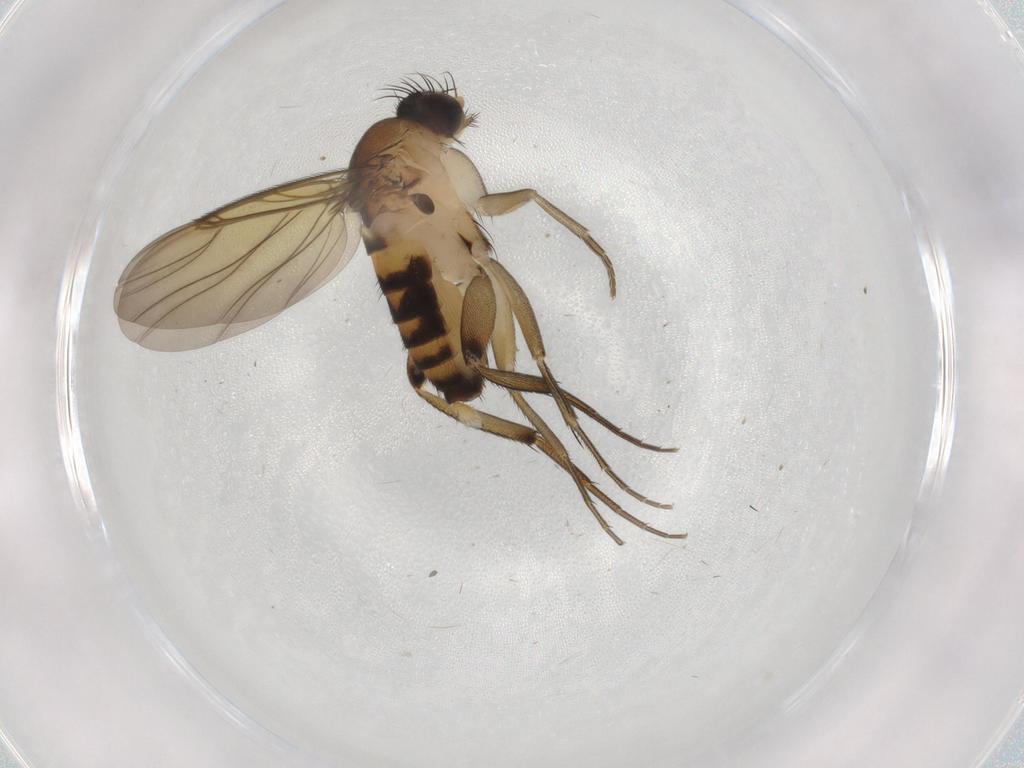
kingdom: Animalia
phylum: Arthropoda
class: Insecta
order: Diptera
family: Phoridae
